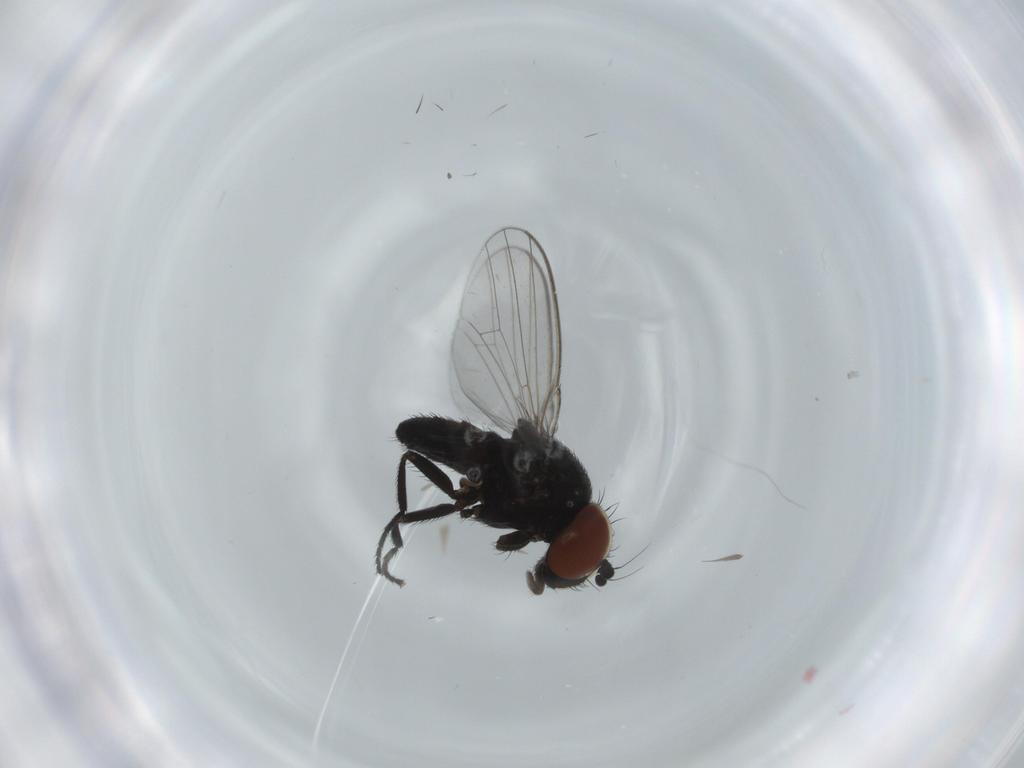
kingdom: Animalia
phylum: Arthropoda
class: Insecta
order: Diptera
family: Milichiidae
